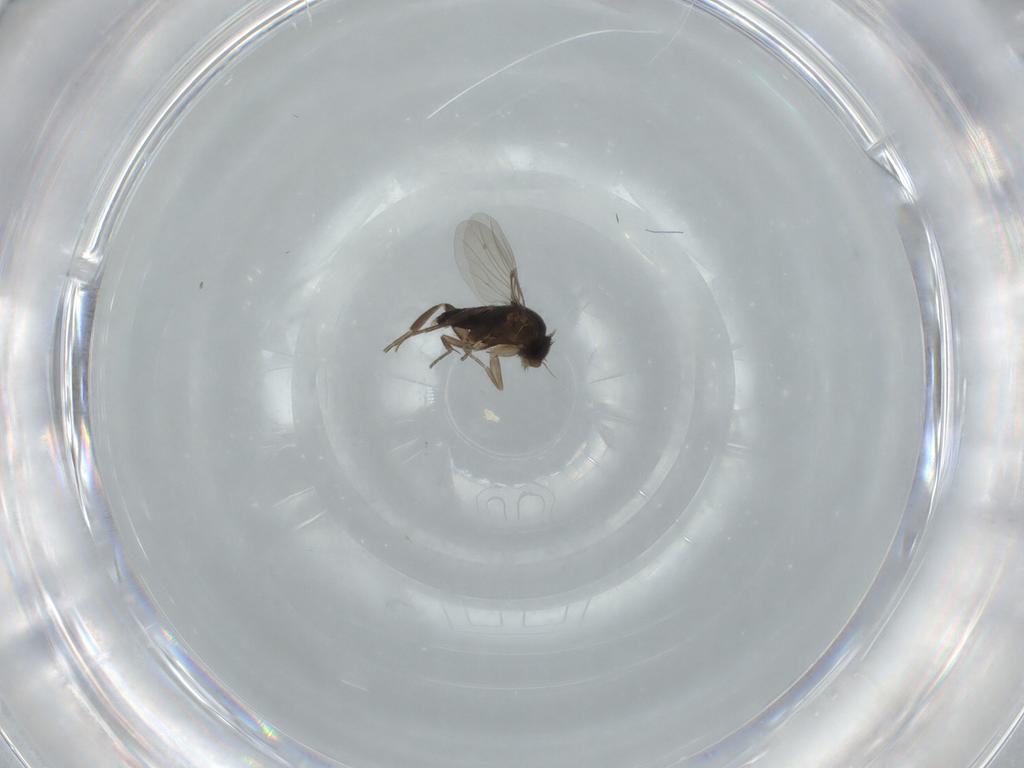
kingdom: Animalia
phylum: Arthropoda
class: Insecta
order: Diptera
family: Phoridae
